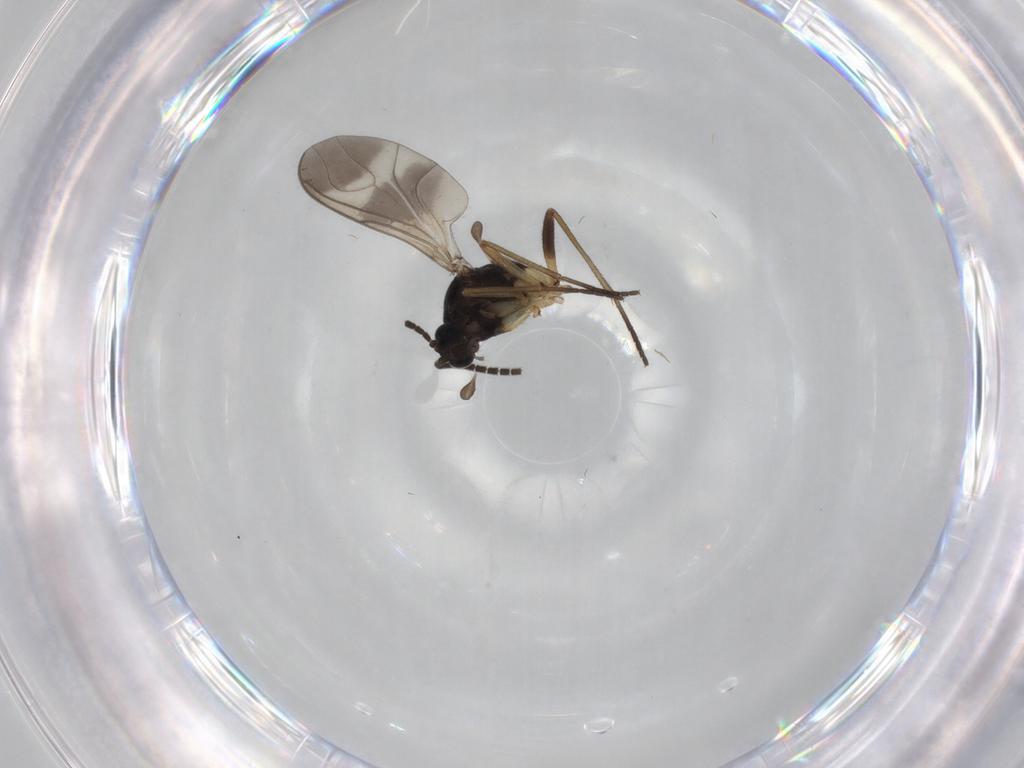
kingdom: Animalia
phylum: Arthropoda
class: Insecta
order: Diptera
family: Sciaridae
